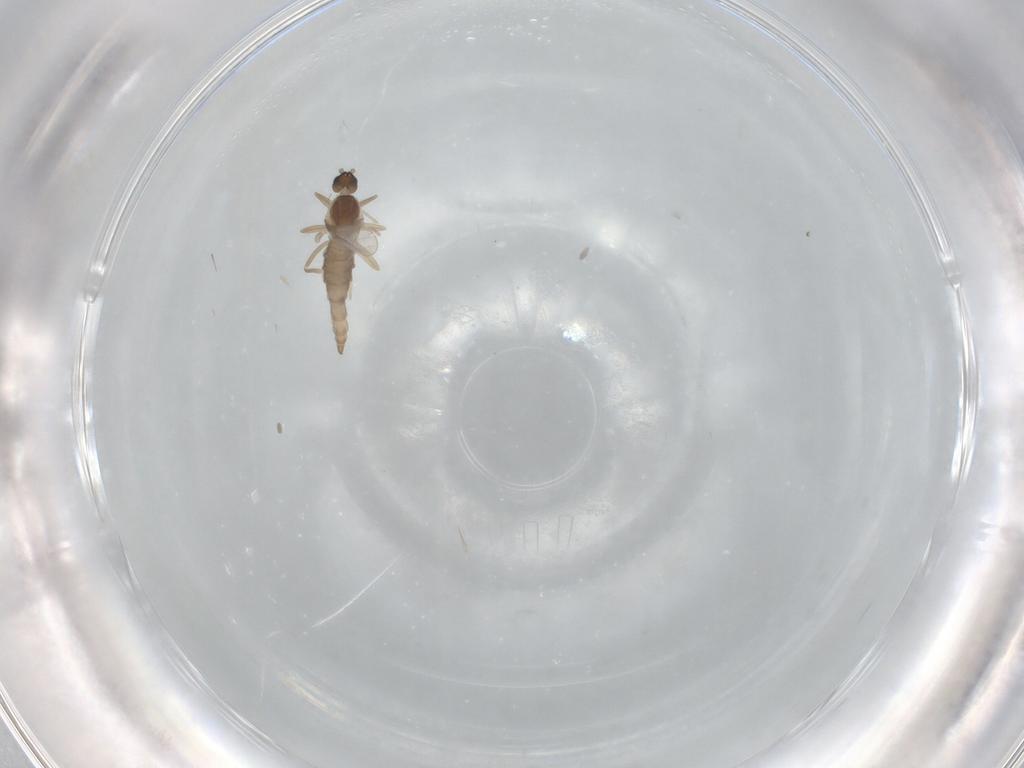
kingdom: Animalia
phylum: Arthropoda
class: Insecta
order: Diptera
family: Cecidomyiidae
